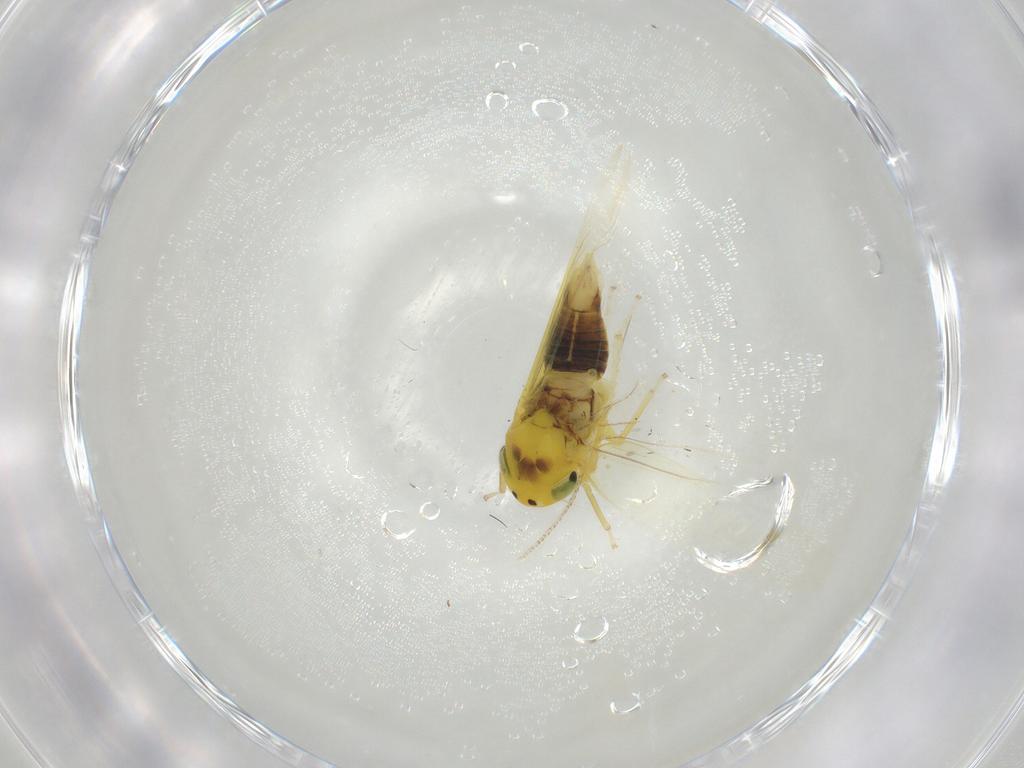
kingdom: Animalia
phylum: Arthropoda
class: Insecta
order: Hemiptera
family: Cicadellidae
